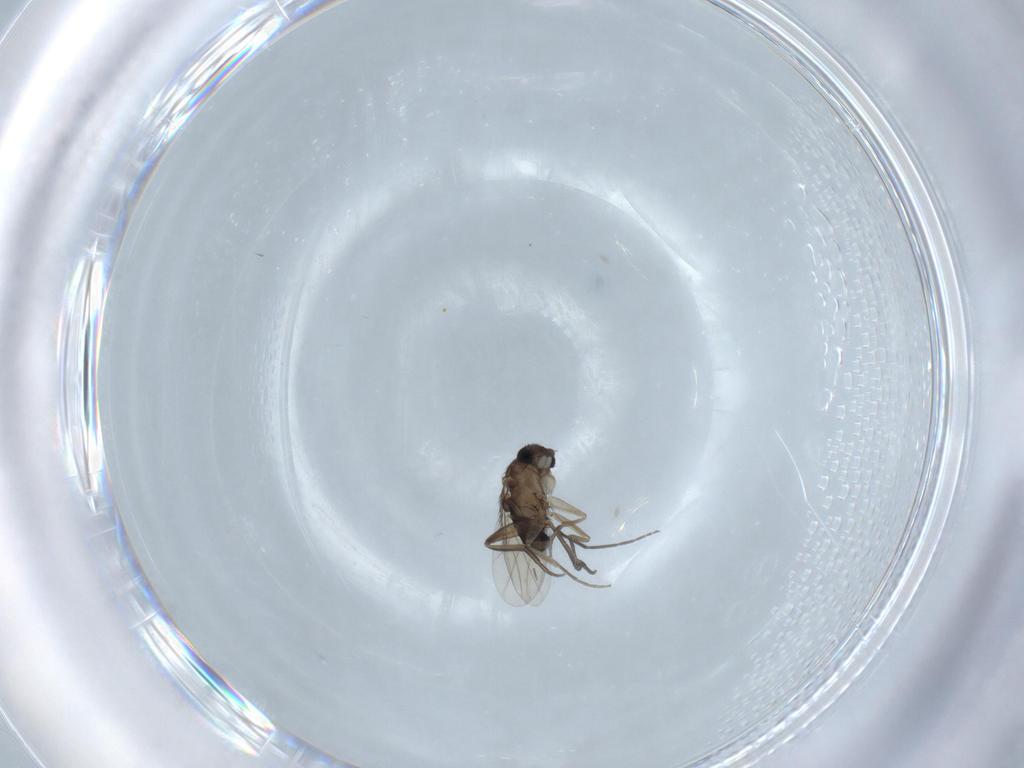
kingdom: Animalia
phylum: Arthropoda
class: Insecta
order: Diptera
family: Phoridae
